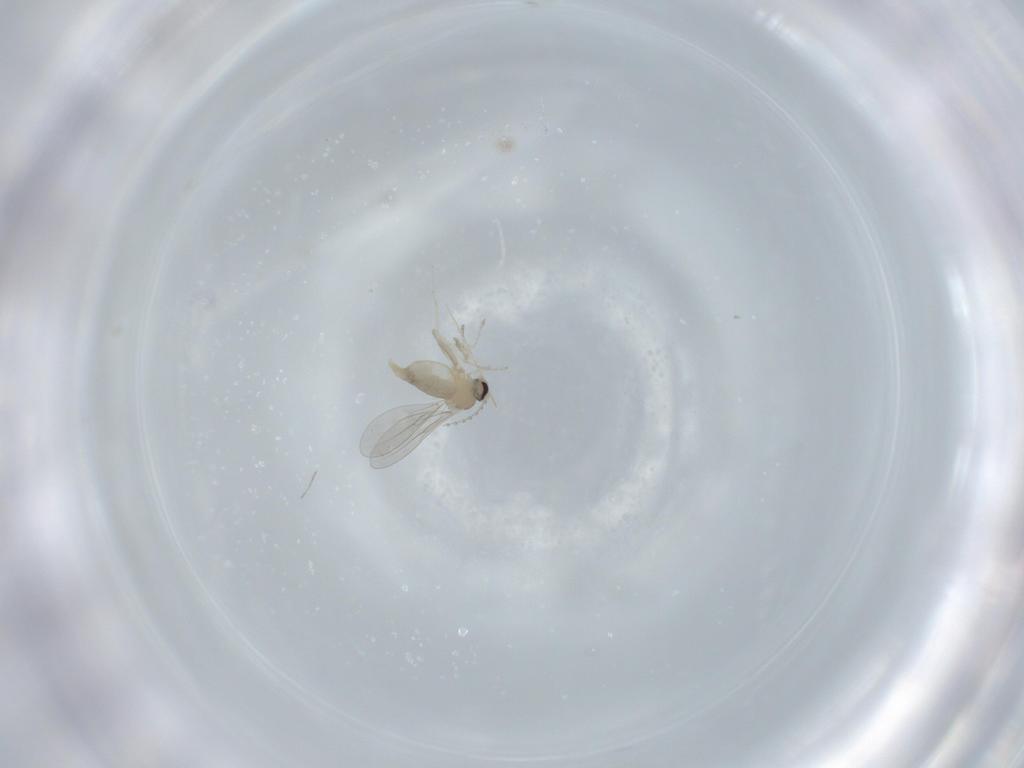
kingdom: Animalia
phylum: Arthropoda
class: Insecta
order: Diptera
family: Cecidomyiidae
